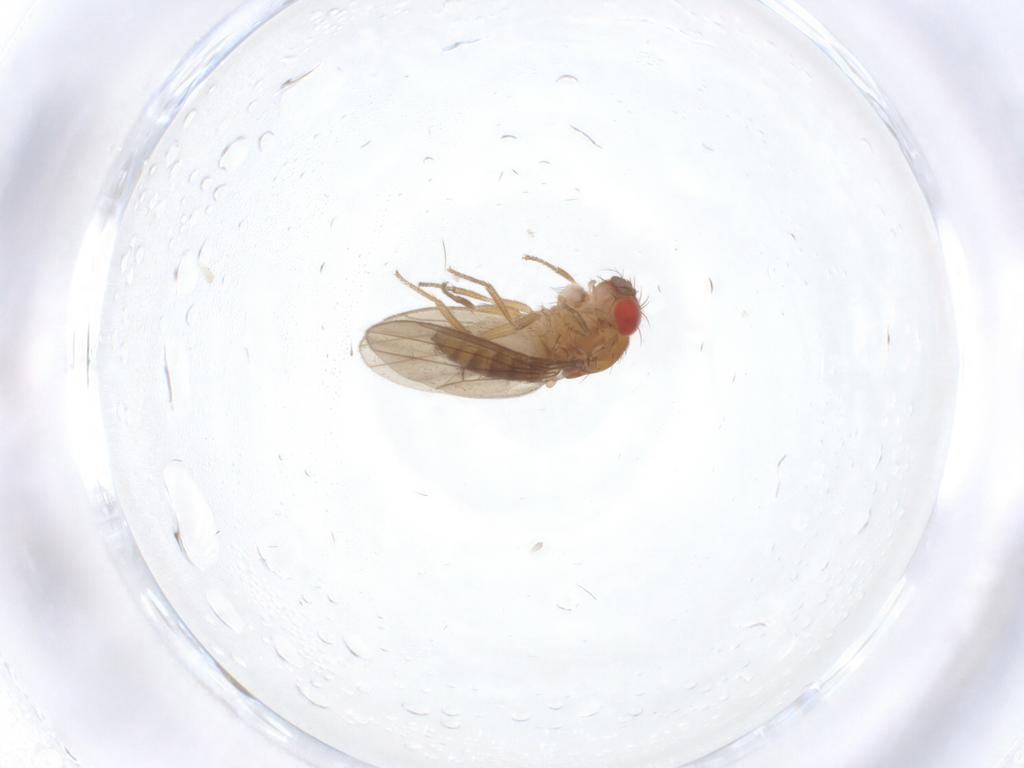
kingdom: Animalia
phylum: Arthropoda
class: Insecta
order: Diptera
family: Drosophilidae
